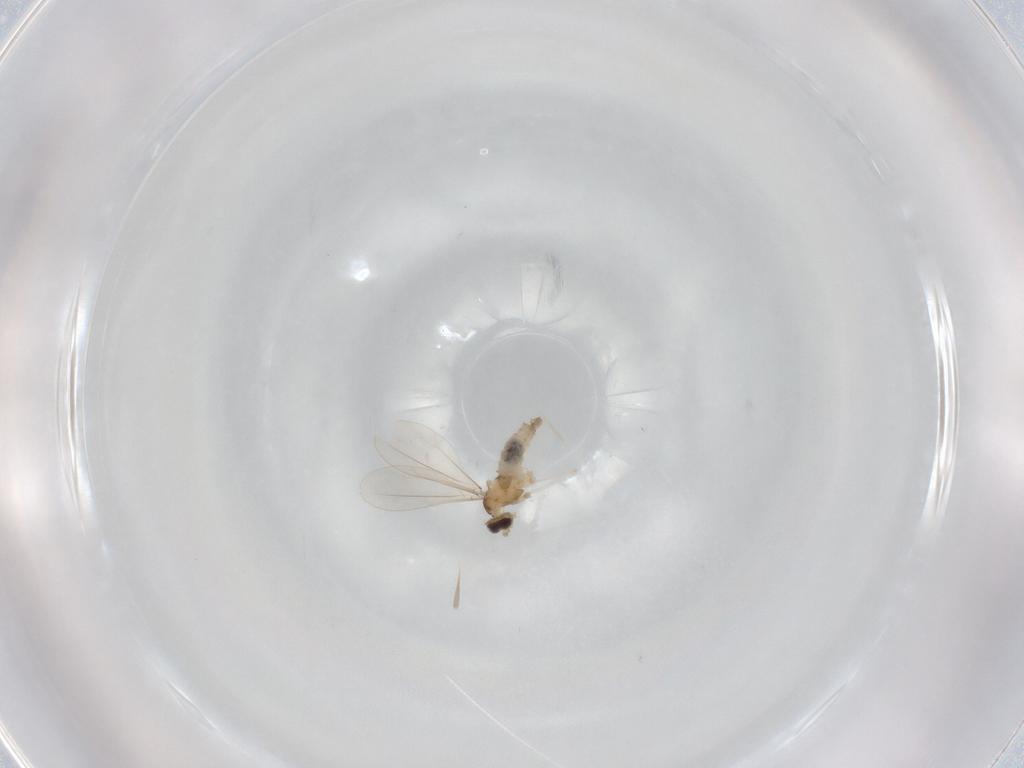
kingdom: Animalia
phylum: Arthropoda
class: Insecta
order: Diptera
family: Cecidomyiidae
